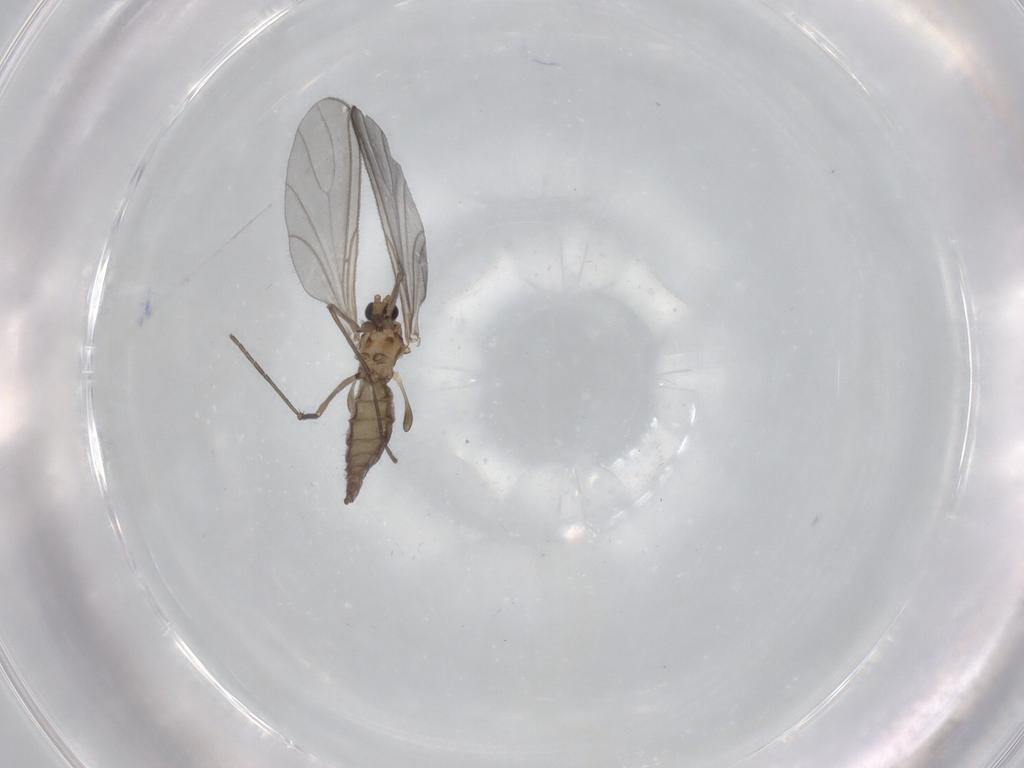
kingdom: Animalia
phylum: Arthropoda
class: Insecta
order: Diptera
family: Sciaridae
